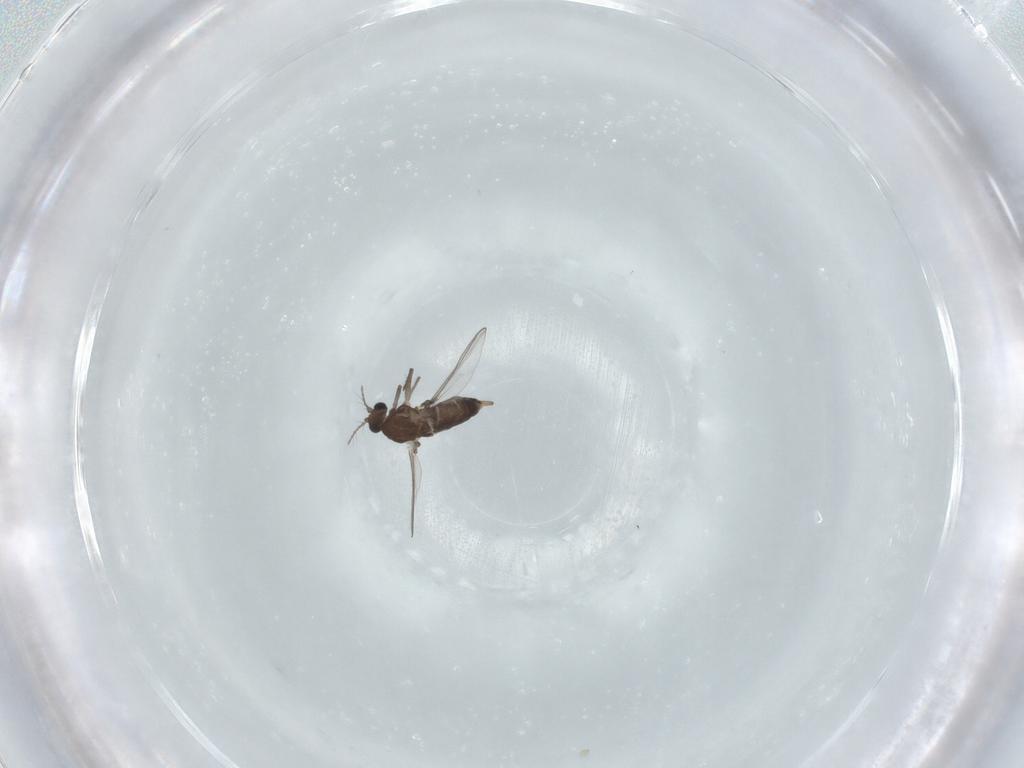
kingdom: Animalia
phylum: Arthropoda
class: Insecta
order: Diptera
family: Chironomidae
